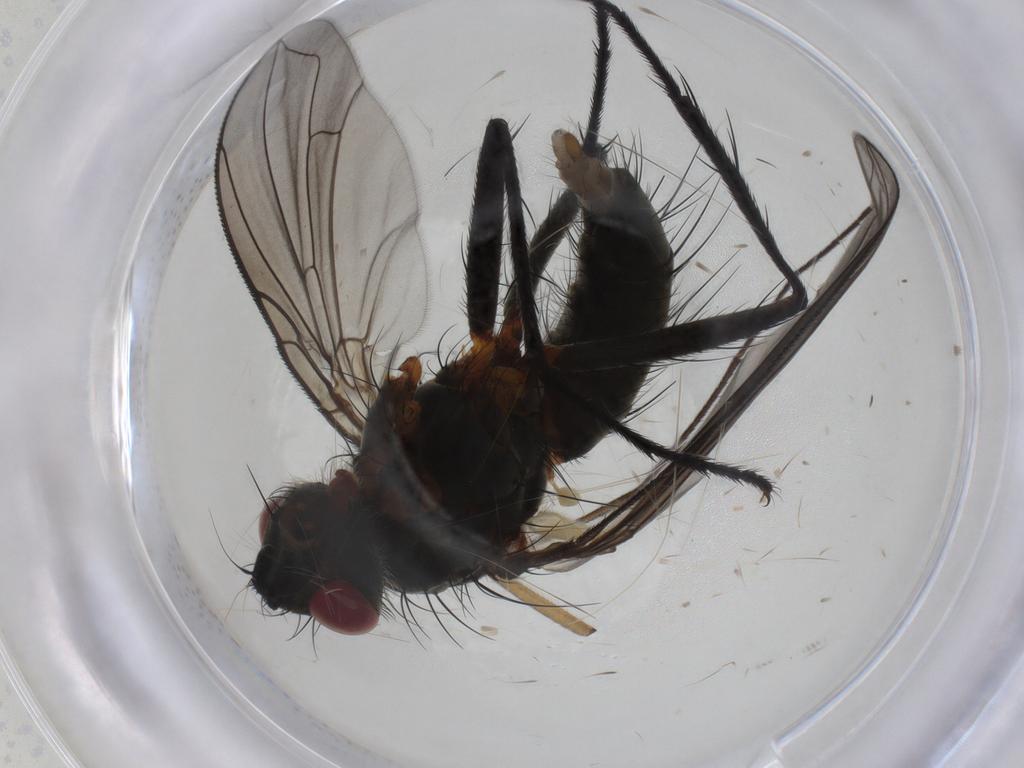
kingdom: Animalia
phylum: Arthropoda
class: Insecta
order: Diptera
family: Tachinidae
